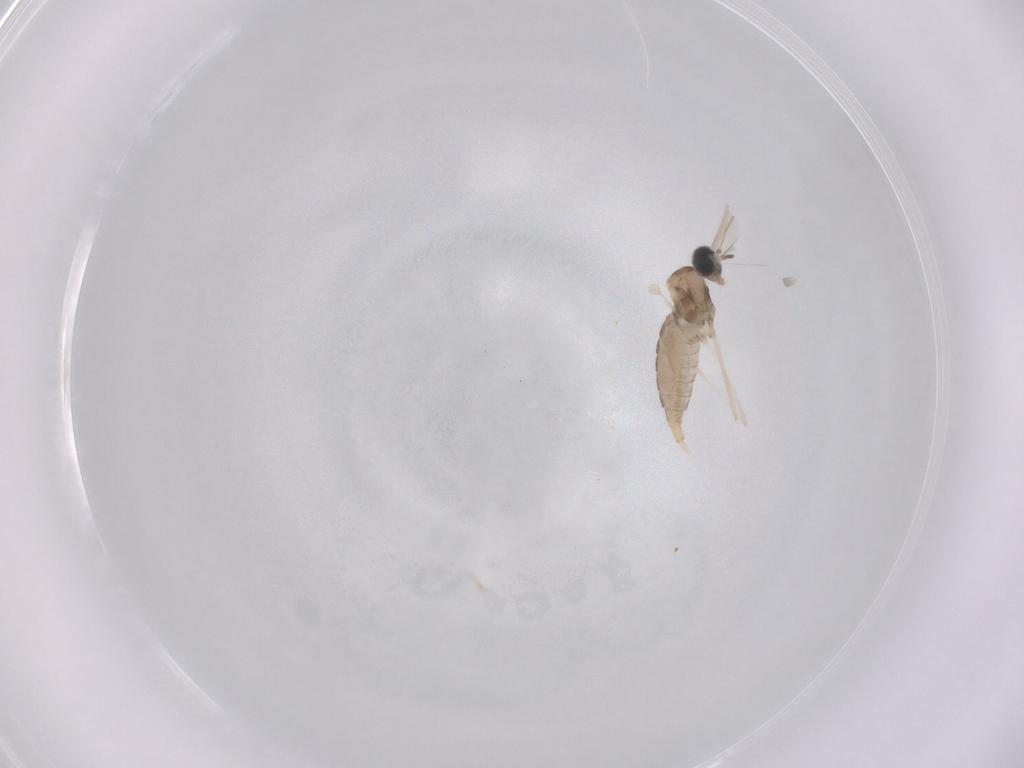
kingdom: Animalia
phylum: Arthropoda
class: Insecta
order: Diptera
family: Cecidomyiidae
